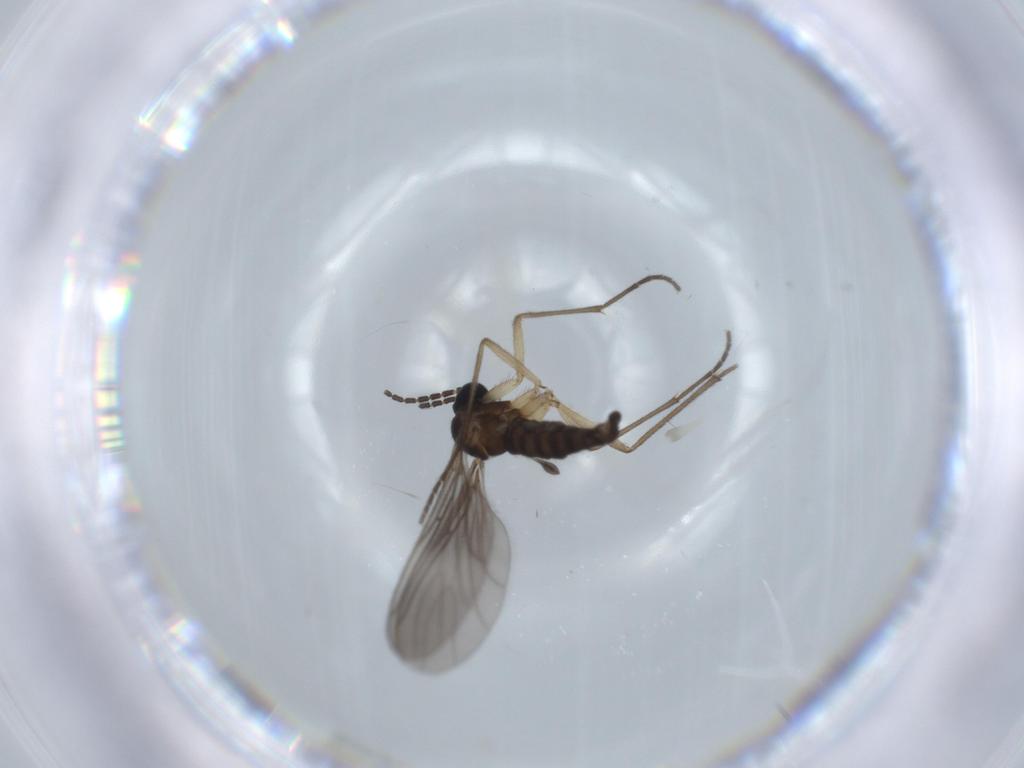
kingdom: Animalia
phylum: Arthropoda
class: Insecta
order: Diptera
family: Sciaridae
